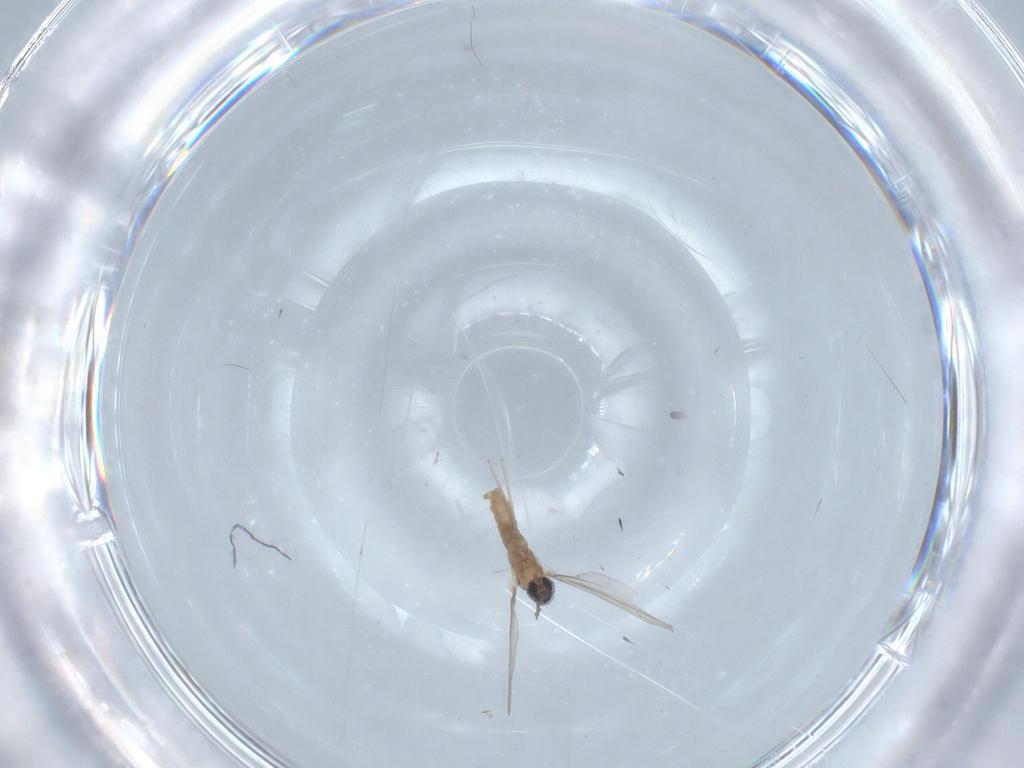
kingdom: Animalia
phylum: Arthropoda
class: Insecta
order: Diptera
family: Cecidomyiidae
